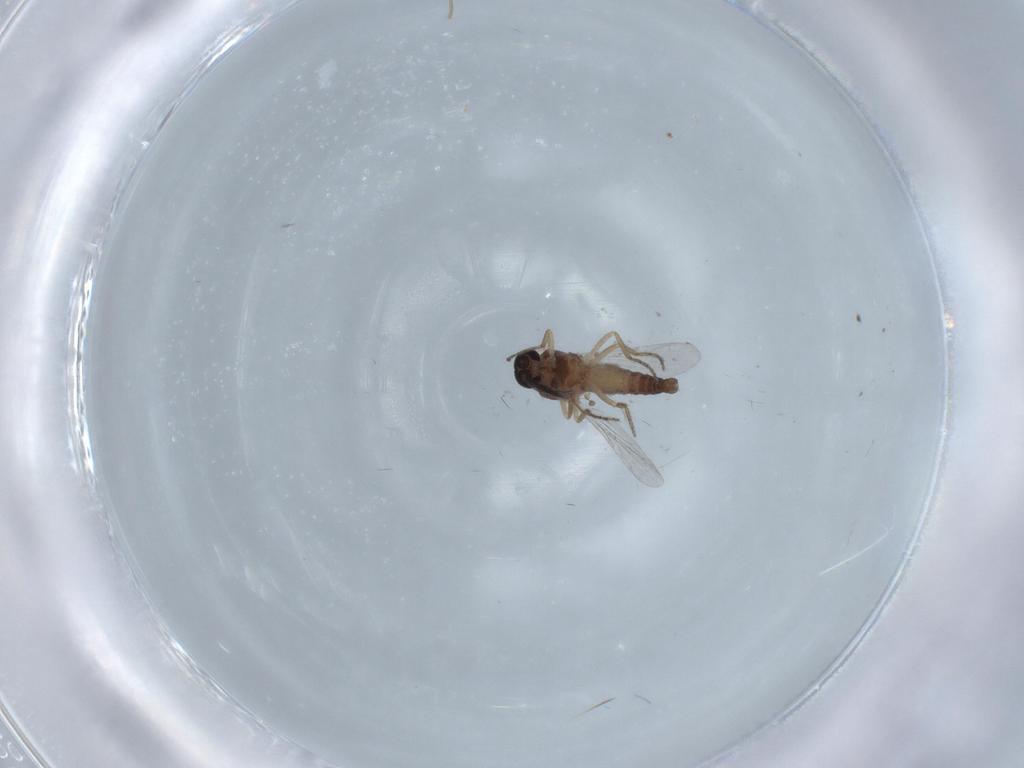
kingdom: Animalia
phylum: Arthropoda
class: Insecta
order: Diptera
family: Ceratopogonidae
